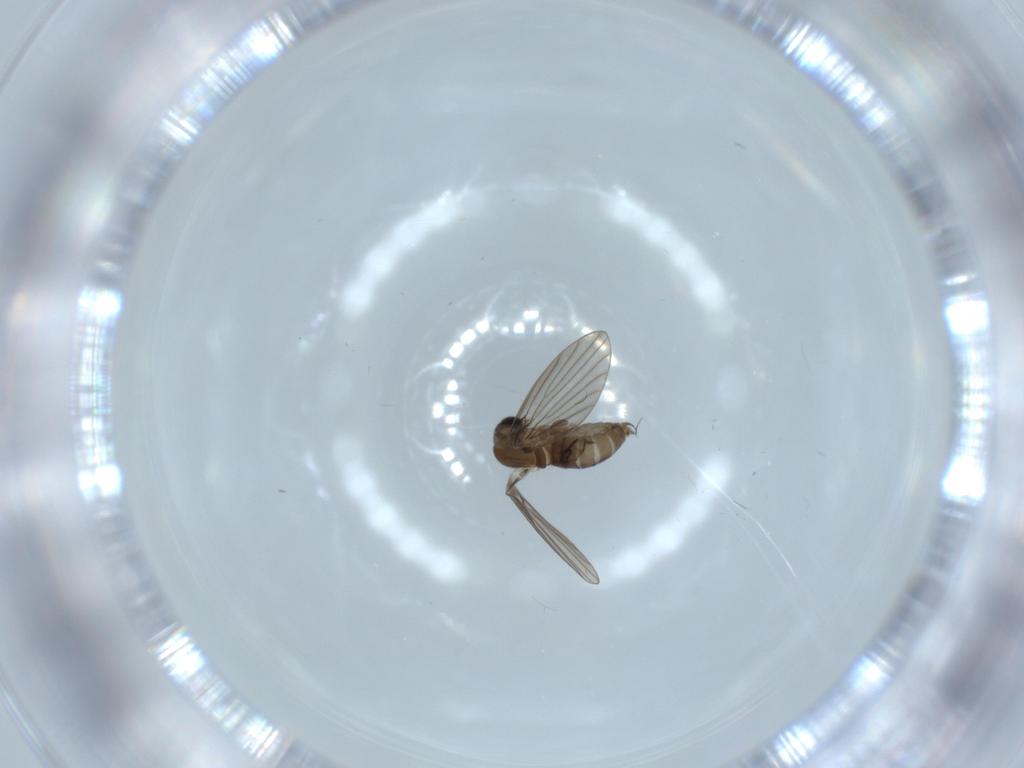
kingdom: Animalia
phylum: Arthropoda
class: Insecta
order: Diptera
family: Psychodidae
